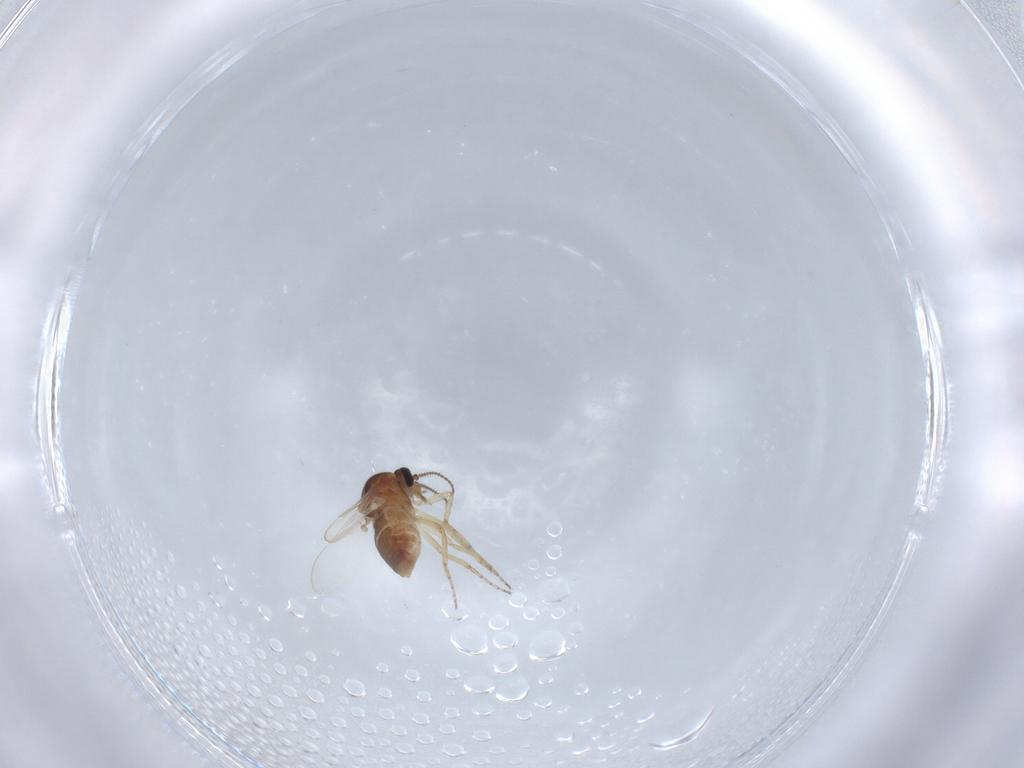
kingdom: Animalia
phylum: Arthropoda
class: Insecta
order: Diptera
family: Ceratopogonidae
